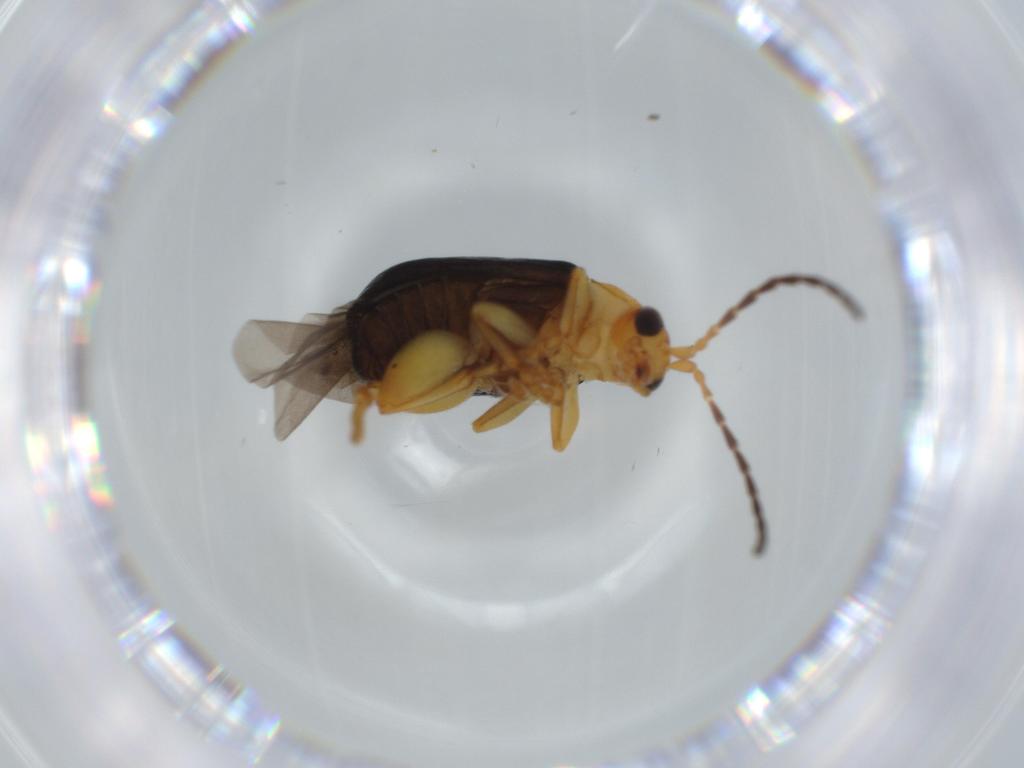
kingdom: Animalia
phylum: Arthropoda
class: Insecta
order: Coleoptera
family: Chrysomelidae
